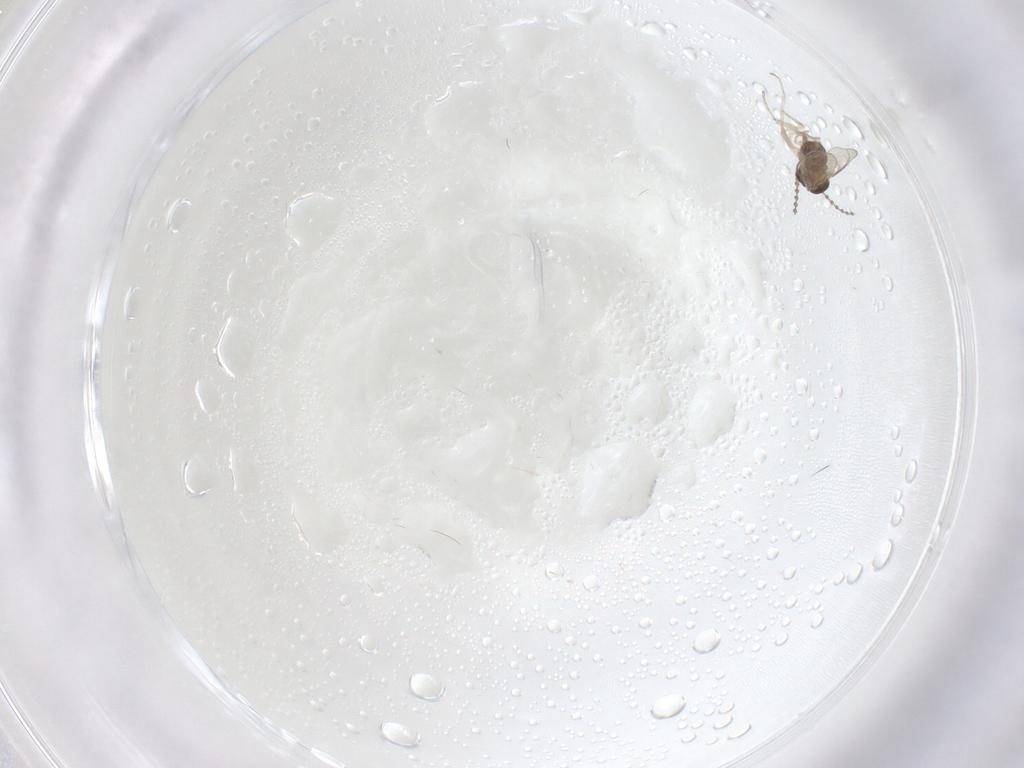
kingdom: Animalia
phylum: Arthropoda
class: Insecta
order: Diptera
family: Cecidomyiidae
